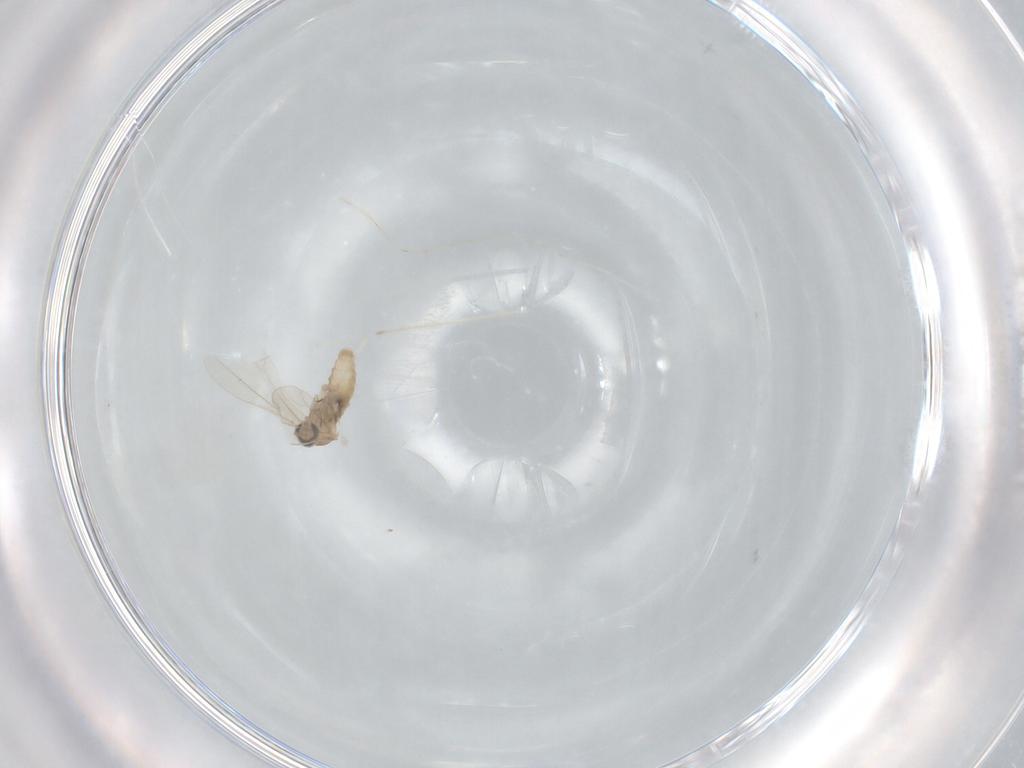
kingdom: Animalia
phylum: Arthropoda
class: Insecta
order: Diptera
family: Cecidomyiidae
